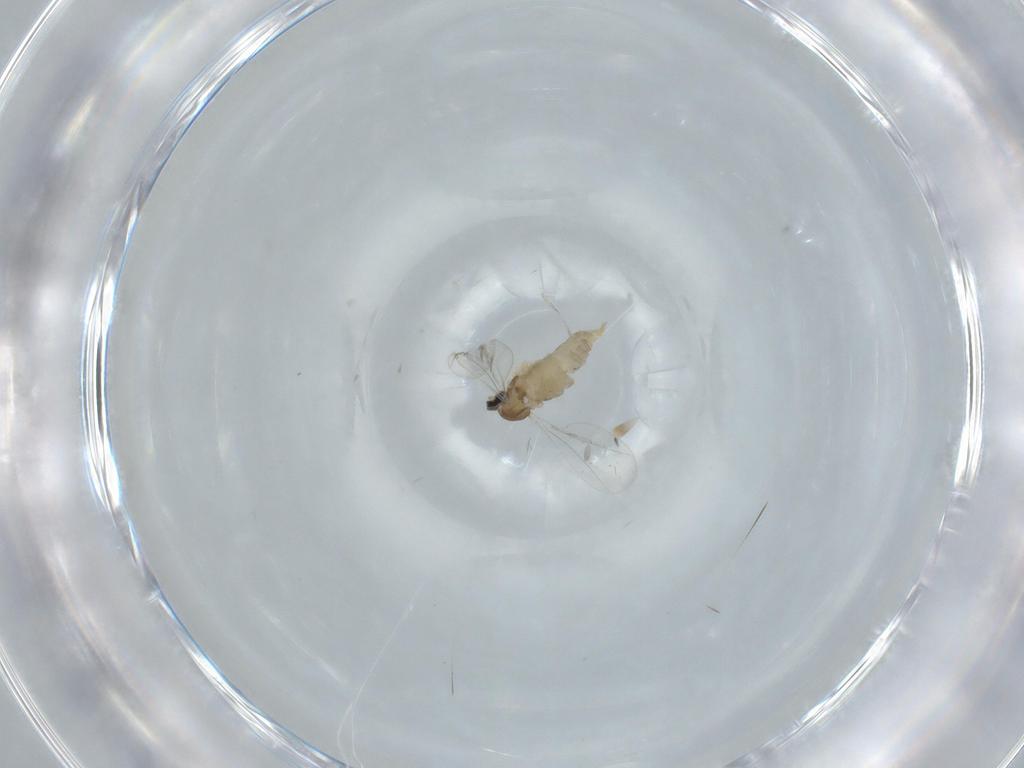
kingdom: Animalia
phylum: Arthropoda
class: Insecta
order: Diptera
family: Cecidomyiidae
